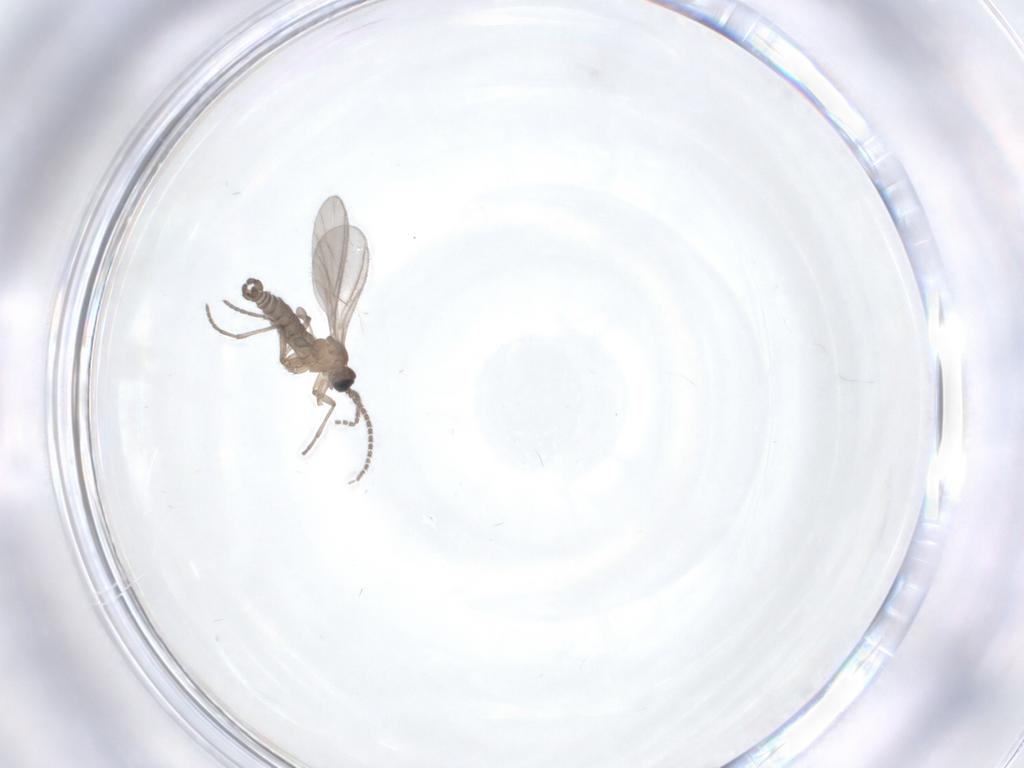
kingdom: Animalia
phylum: Arthropoda
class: Insecta
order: Diptera
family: Sciaridae
